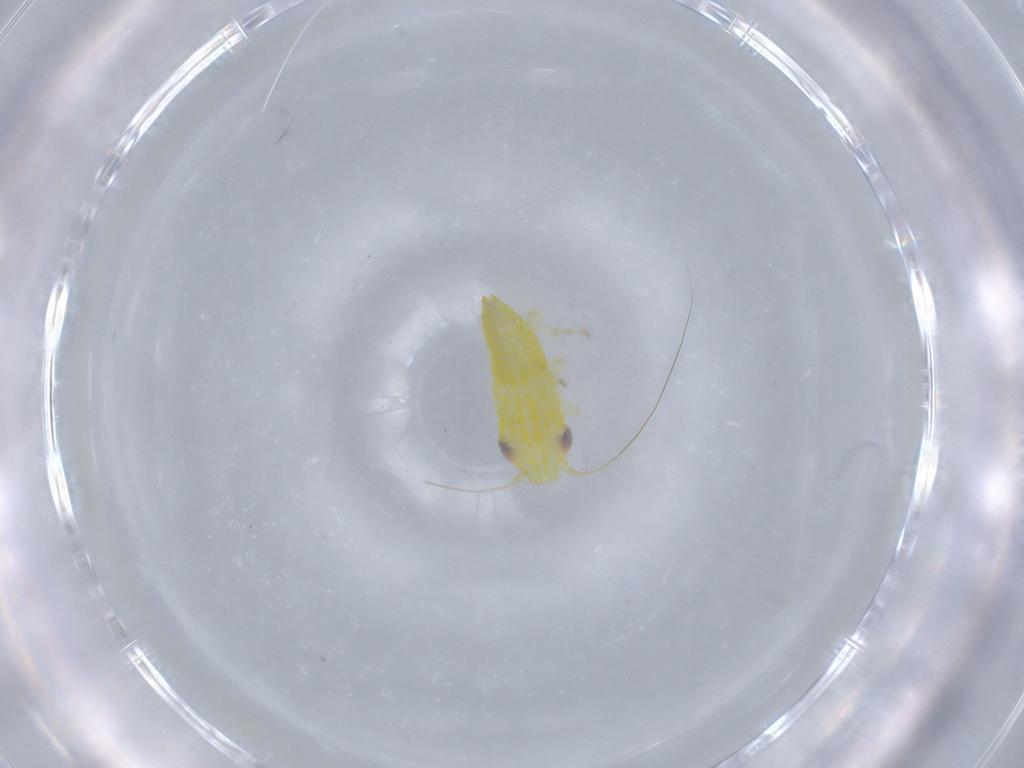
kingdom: Animalia
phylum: Arthropoda
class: Insecta
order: Hemiptera
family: Cicadellidae
